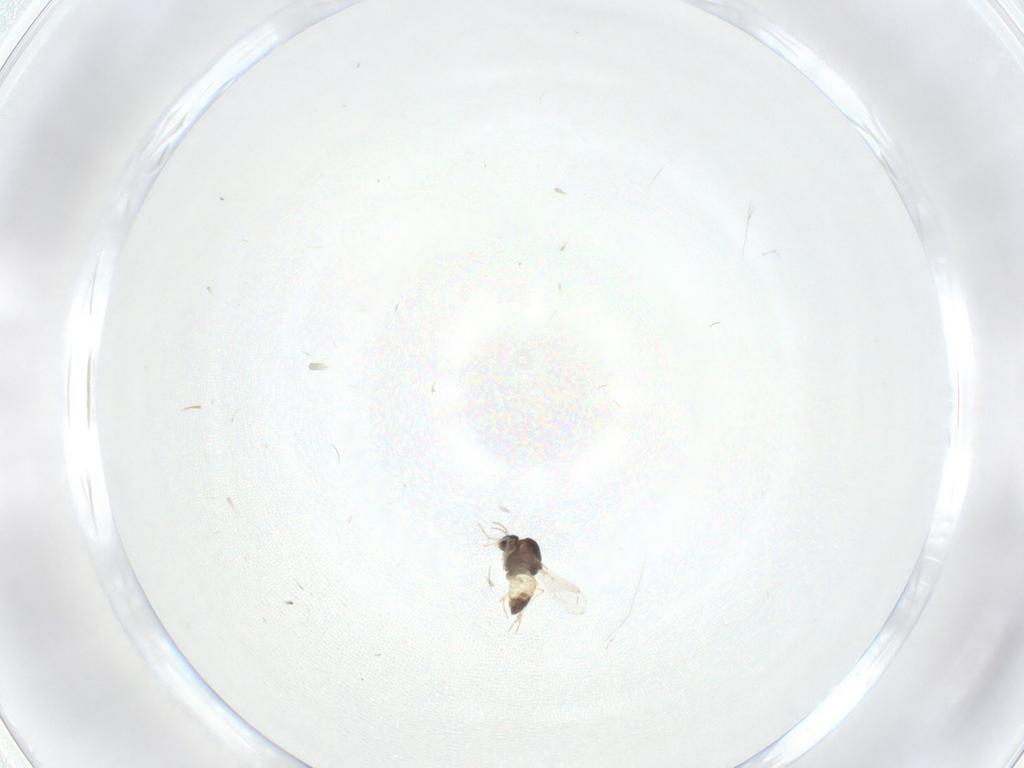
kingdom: Animalia
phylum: Arthropoda
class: Insecta
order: Diptera
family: Chironomidae
